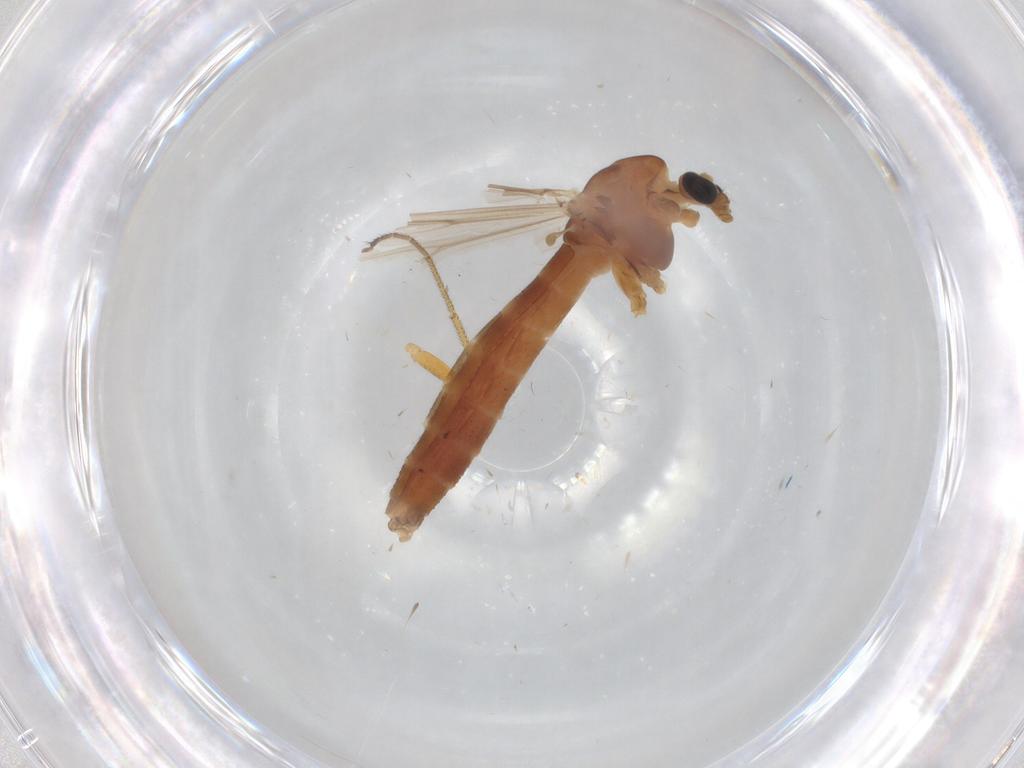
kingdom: Animalia
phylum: Arthropoda
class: Insecta
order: Diptera
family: Chironomidae
